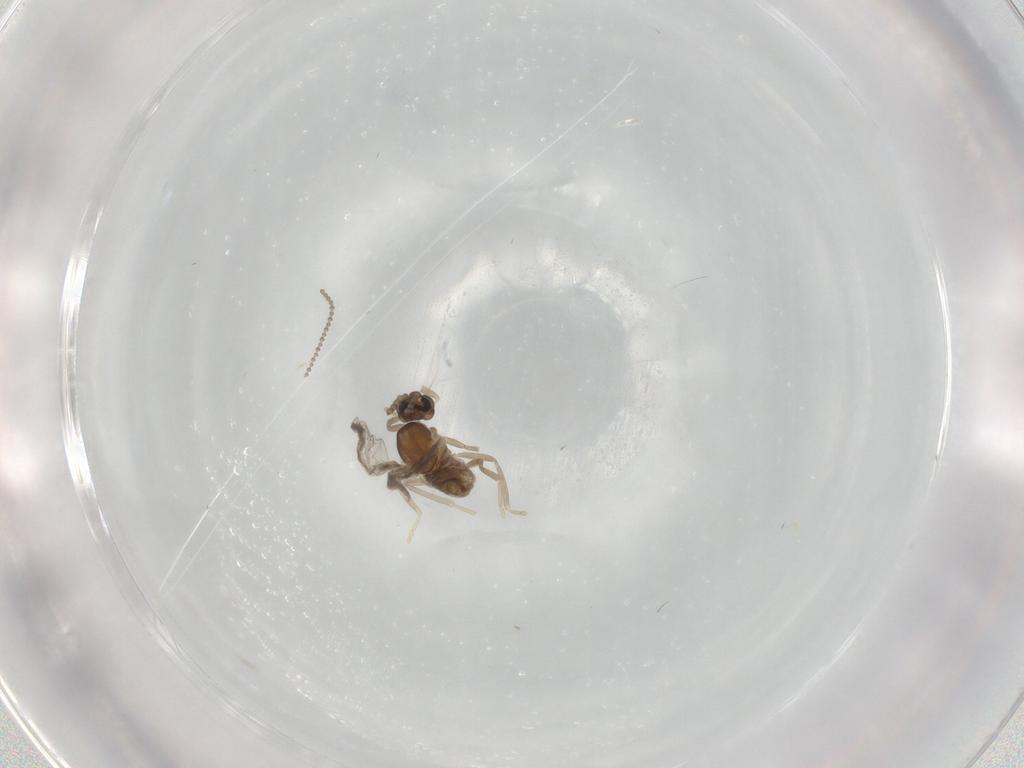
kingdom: Animalia
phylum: Arthropoda
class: Insecta
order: Diptera
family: Cecidomyiidae
